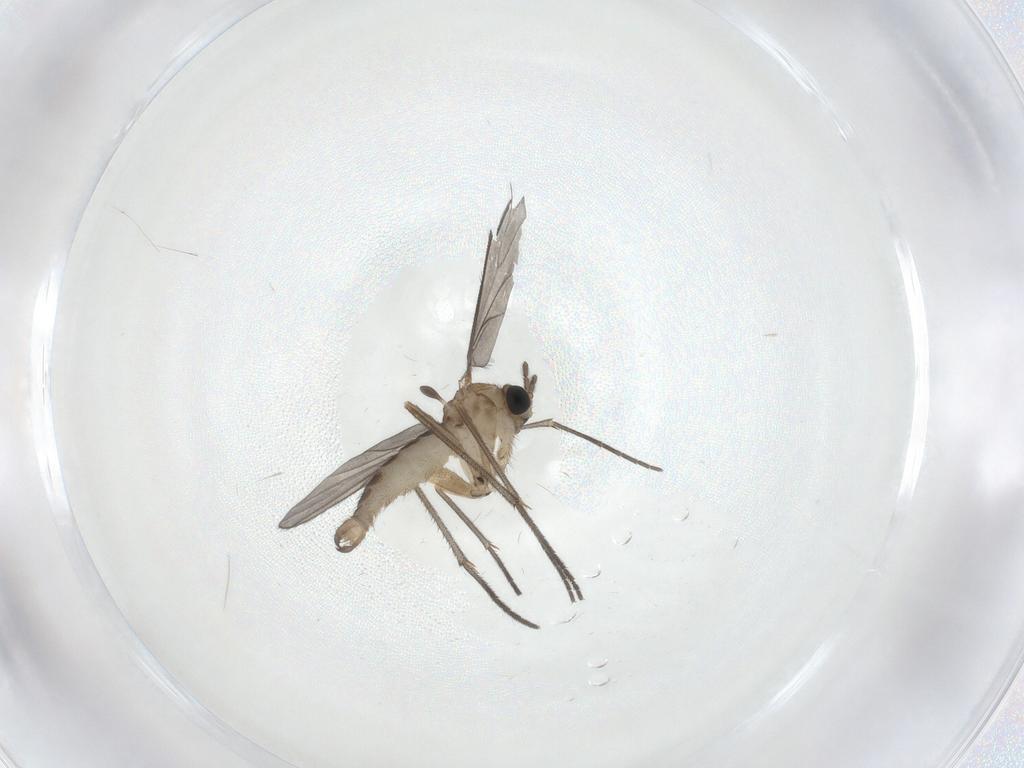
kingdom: Animalia
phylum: Arthropoda
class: Insecta
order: Diptera
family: Sciaridae
